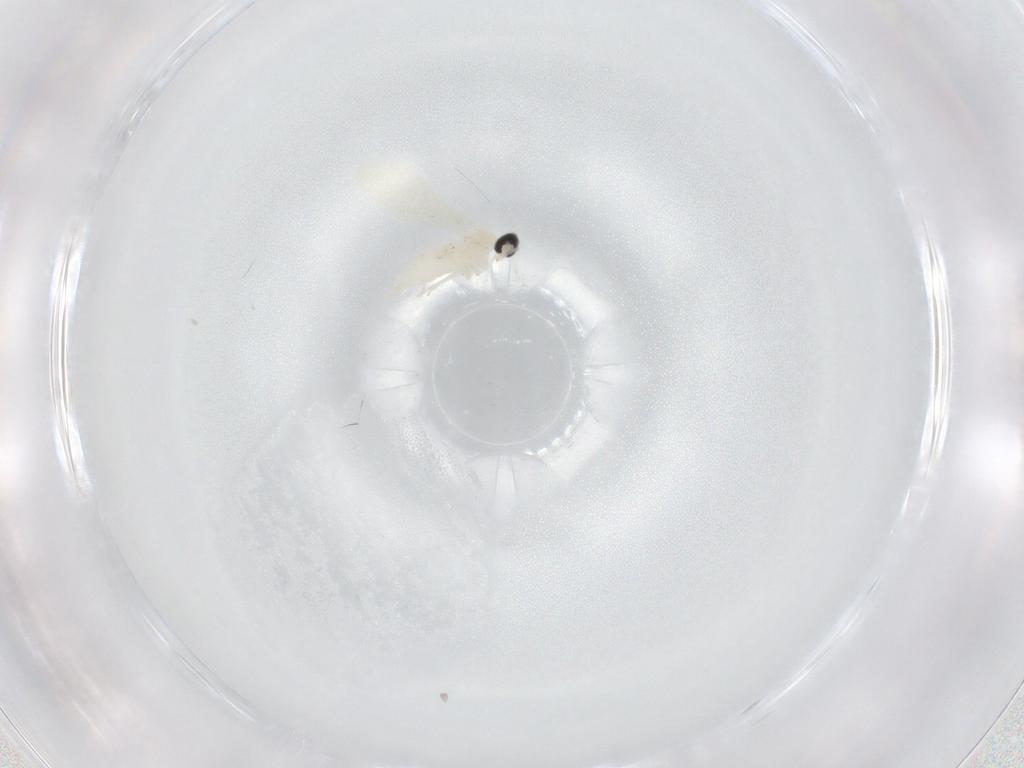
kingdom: Animalia
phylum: Arthropoda
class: Insecta
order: Diptera
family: Cecidomyiidae
